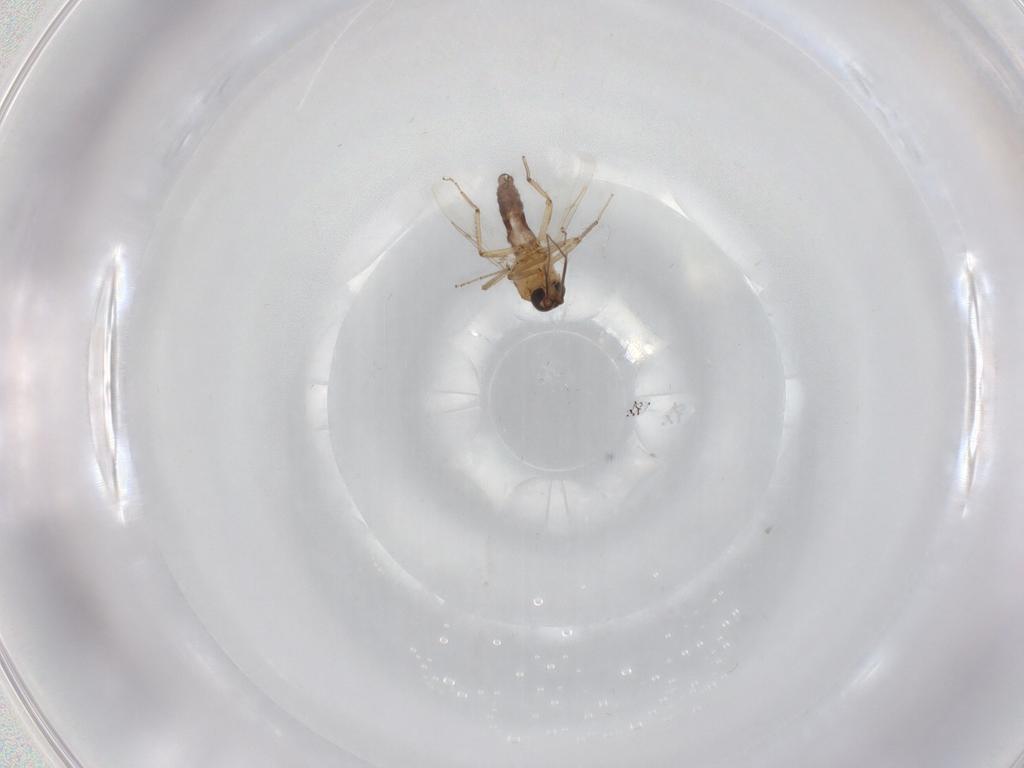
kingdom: Animalia
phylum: Arthropoda
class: Insecta
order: Diptera
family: Ceratopogonidae
